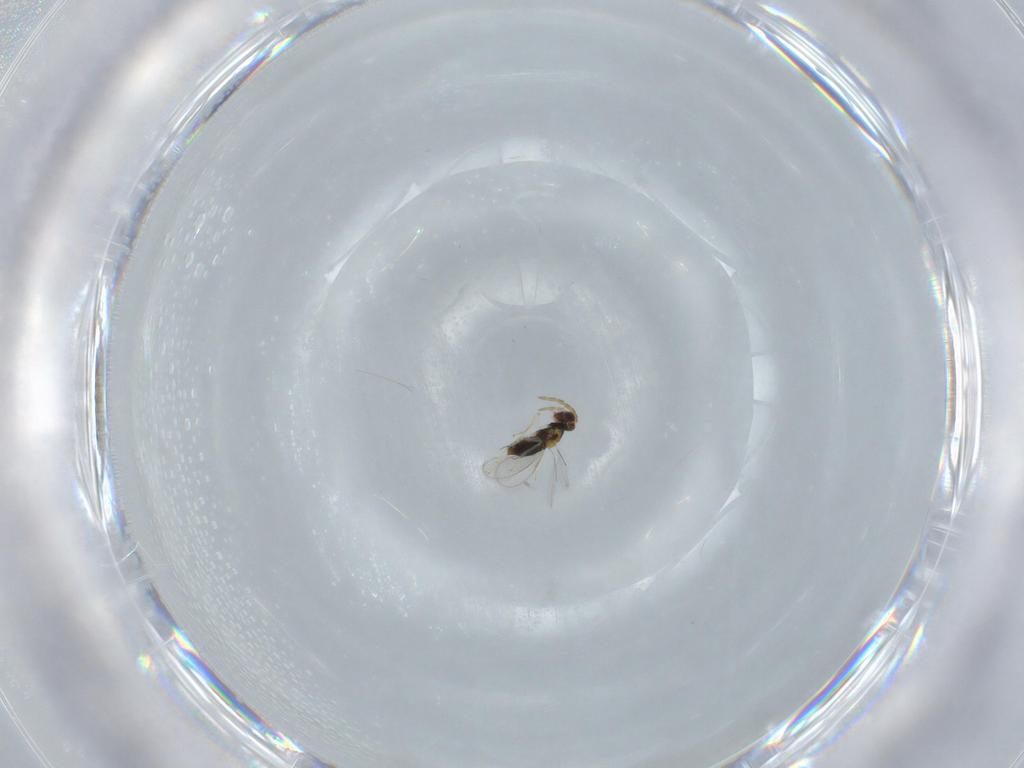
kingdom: Animalia
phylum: Arthropoda
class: Insecta
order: Hymenoptera
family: Aphelinidae
